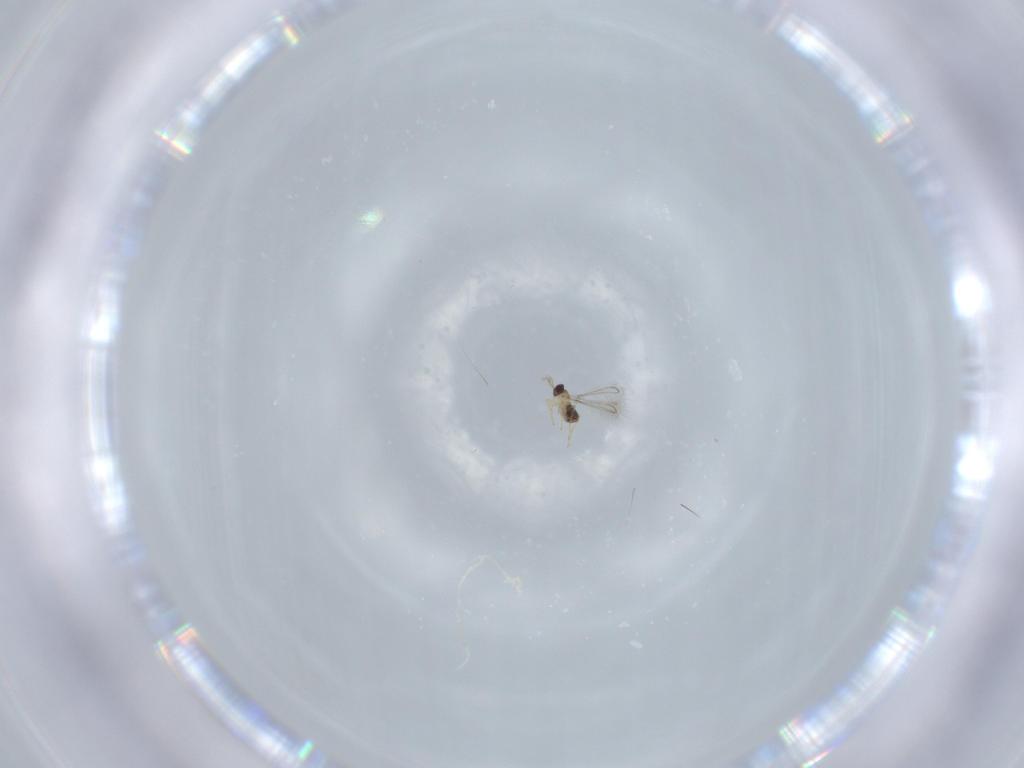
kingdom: Animalia
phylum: Arthropoda
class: Insecta
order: Hymenoptera
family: Mymaridae
